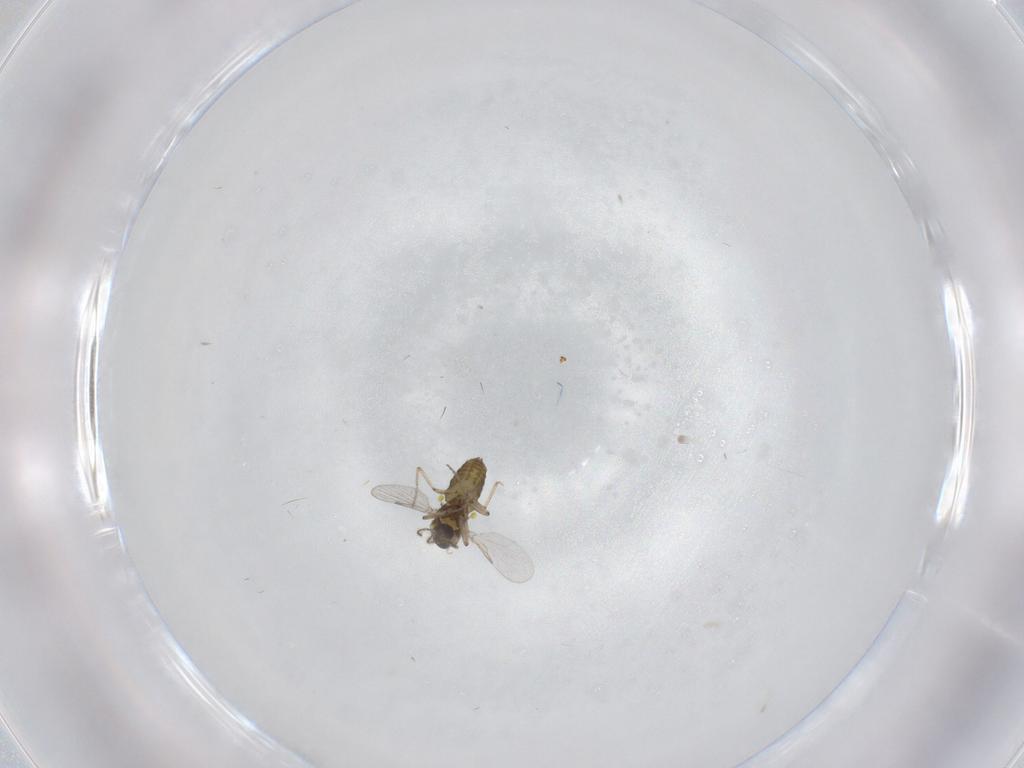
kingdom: Animalia
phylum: Arthropoda
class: Insecta
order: Diptera
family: Ceratopogonidae
